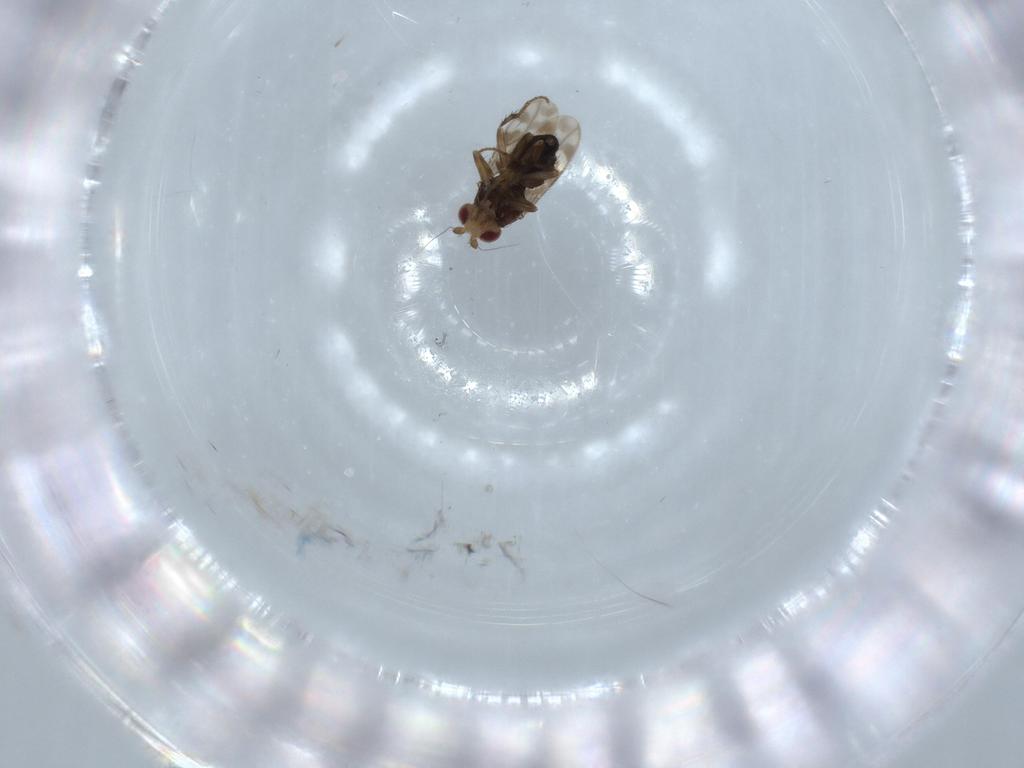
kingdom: Animalia
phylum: Arthropoda
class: Insecta
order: Diptera
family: Sphaeroceridae
